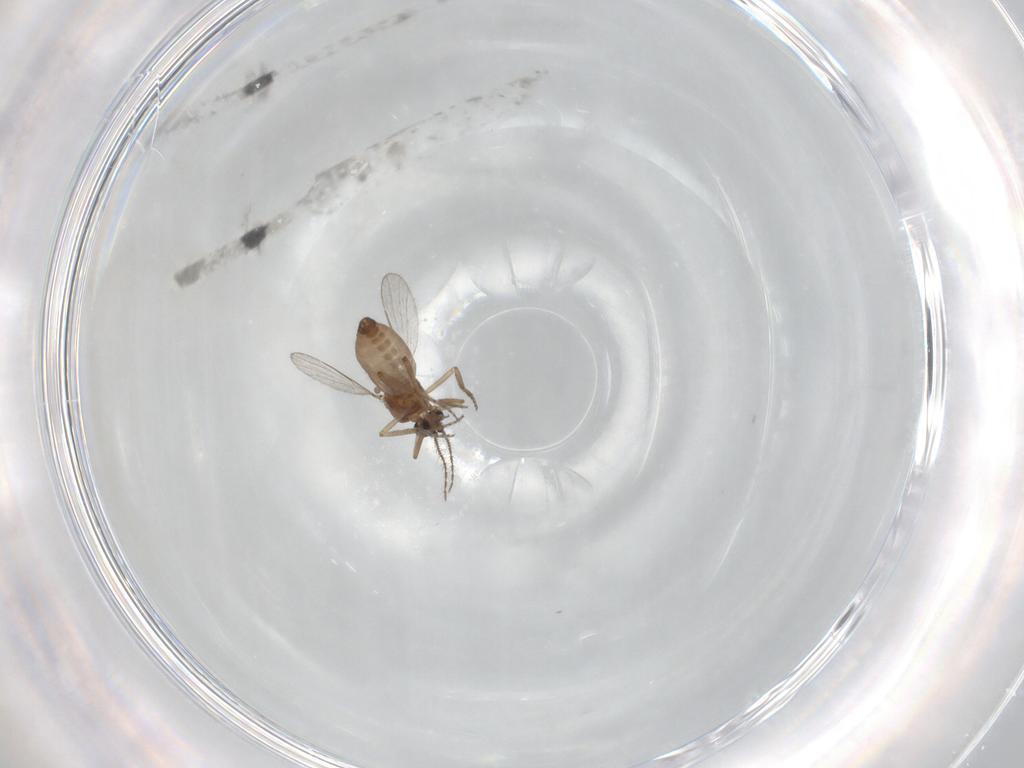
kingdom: Animalia
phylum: Arthropoda
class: Insecta
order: Diptera
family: Ceratopogonidae
